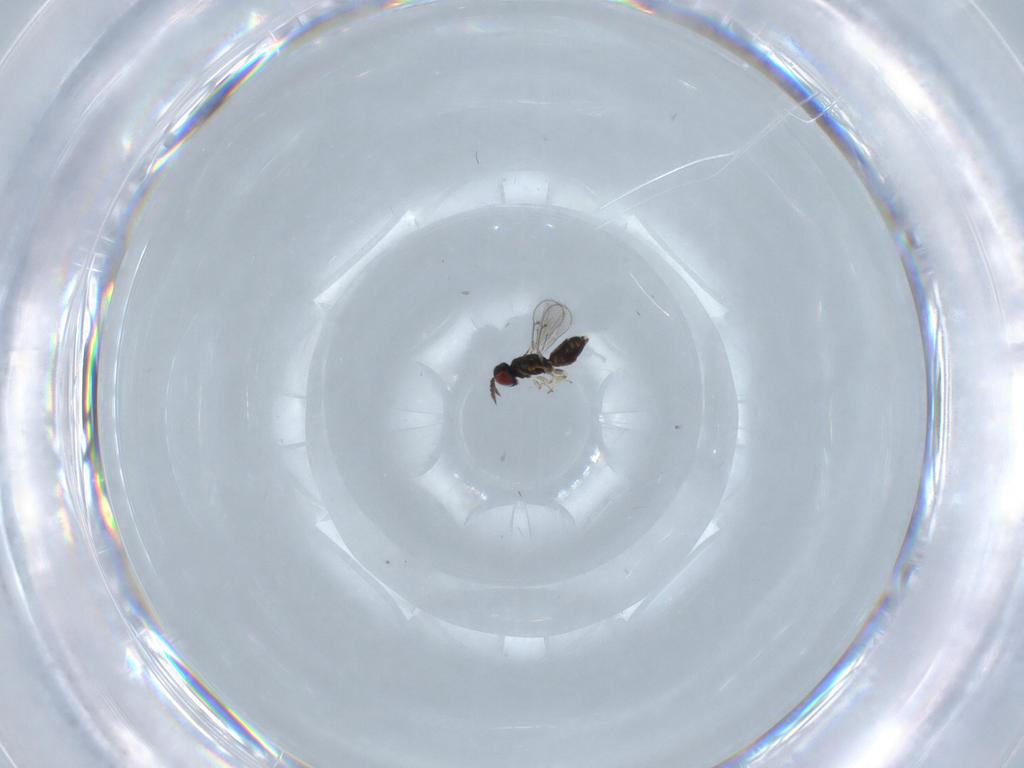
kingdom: Animalia
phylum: Arthropoda
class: Insecta
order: Hymenoptera
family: Eulophidae
